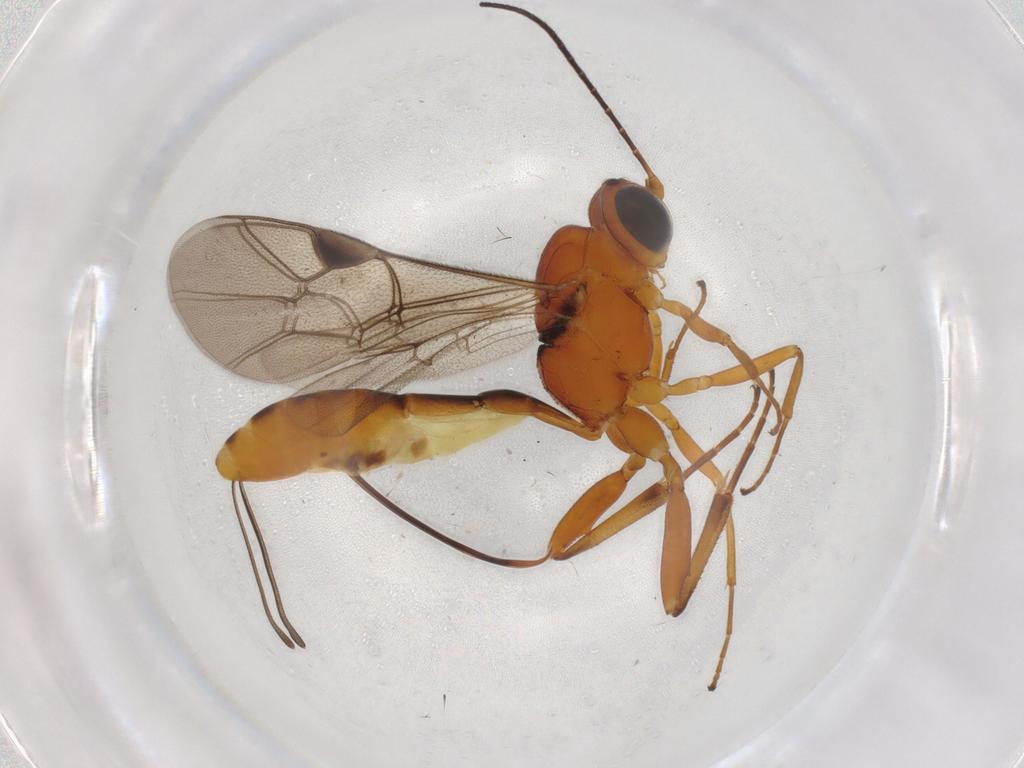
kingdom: Animalia
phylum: Arthropoda
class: Insecta
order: Hymenoptera
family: Ichneumonidae
